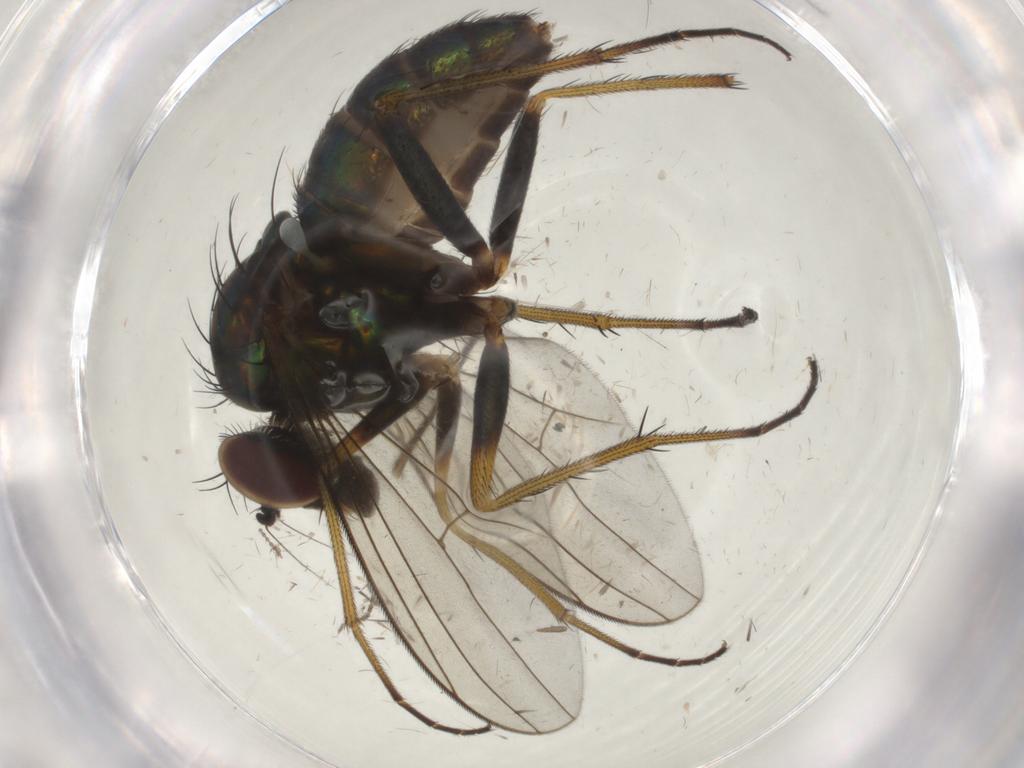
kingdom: Animalia
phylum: Arthropoda
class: Insecta
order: Diptera
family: Dolichopodidae
